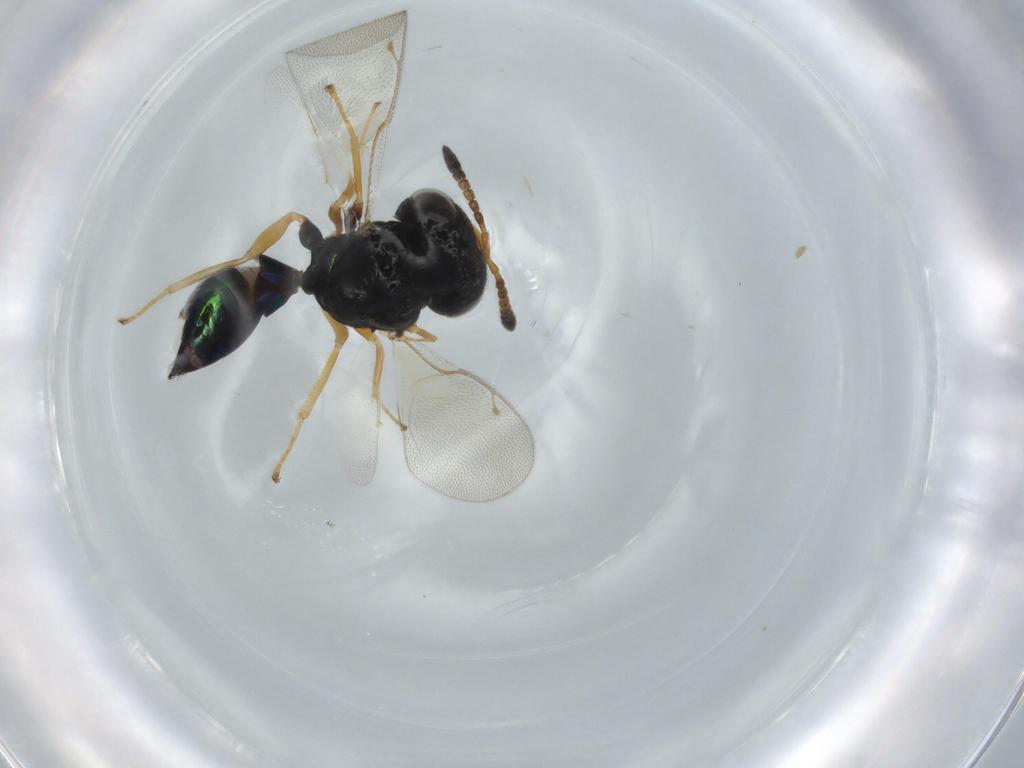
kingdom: Animalia
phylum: Arthropoda
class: Insecta
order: Hymenoptera
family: Pteromalidae
